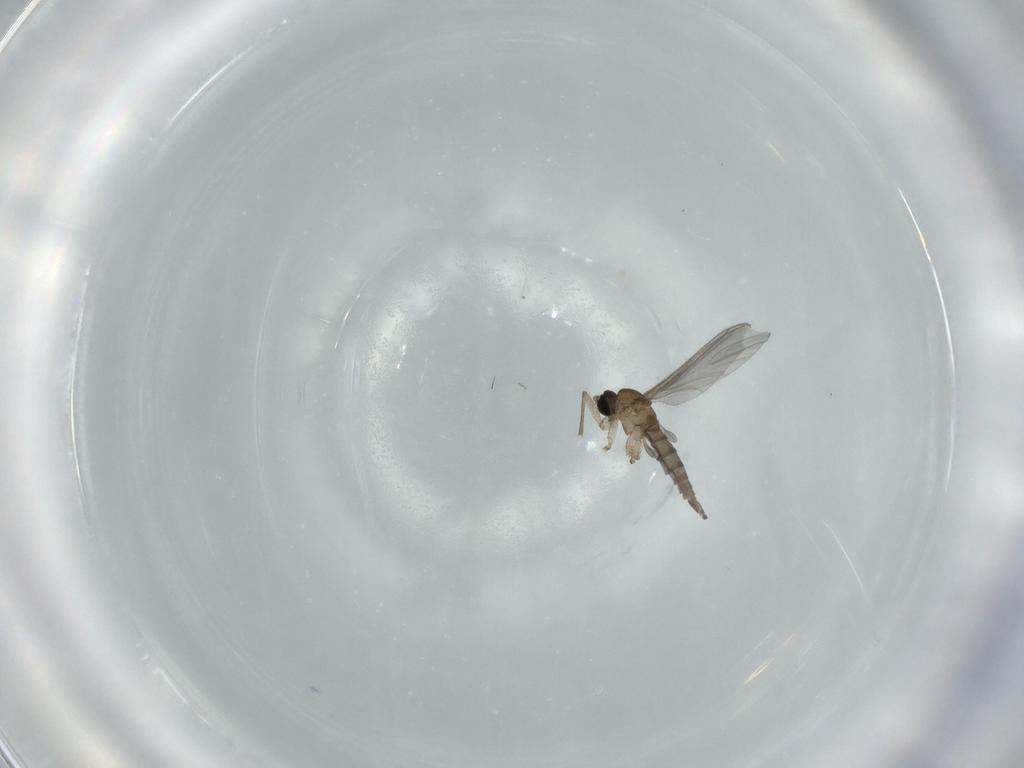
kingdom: Animalia
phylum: Arthropoda
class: Insecta
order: Diptera
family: Sciaridae
